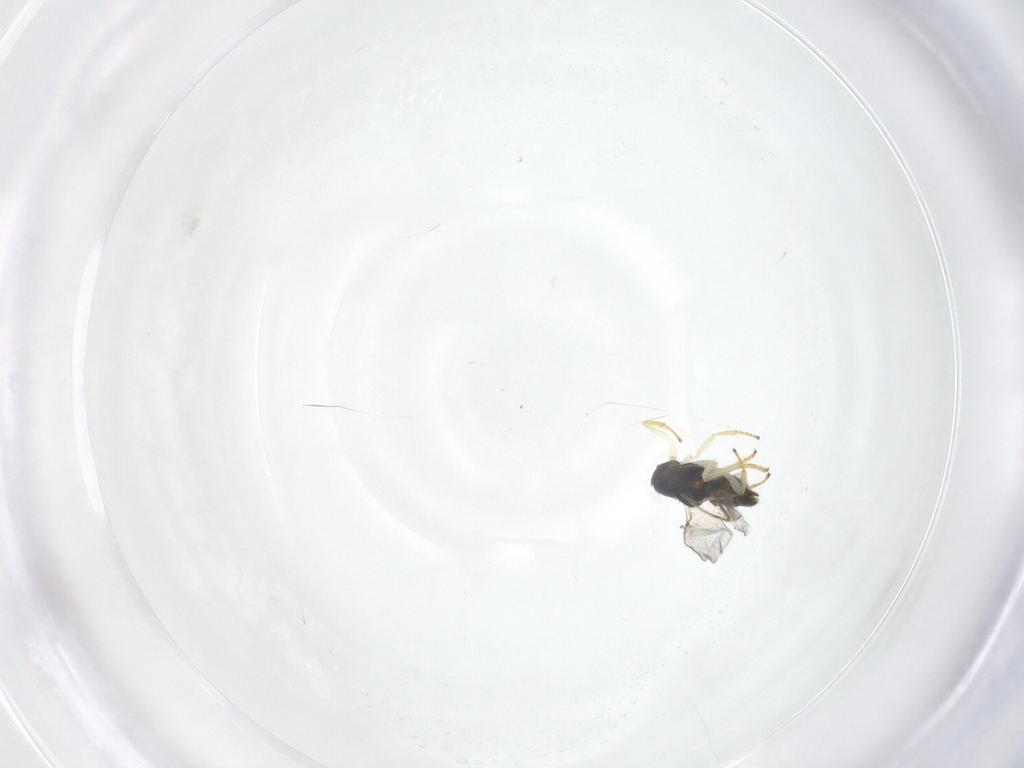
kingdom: Animalia
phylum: Arthropoda
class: Insecta
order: Hymenoptera
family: Encyrtidae
